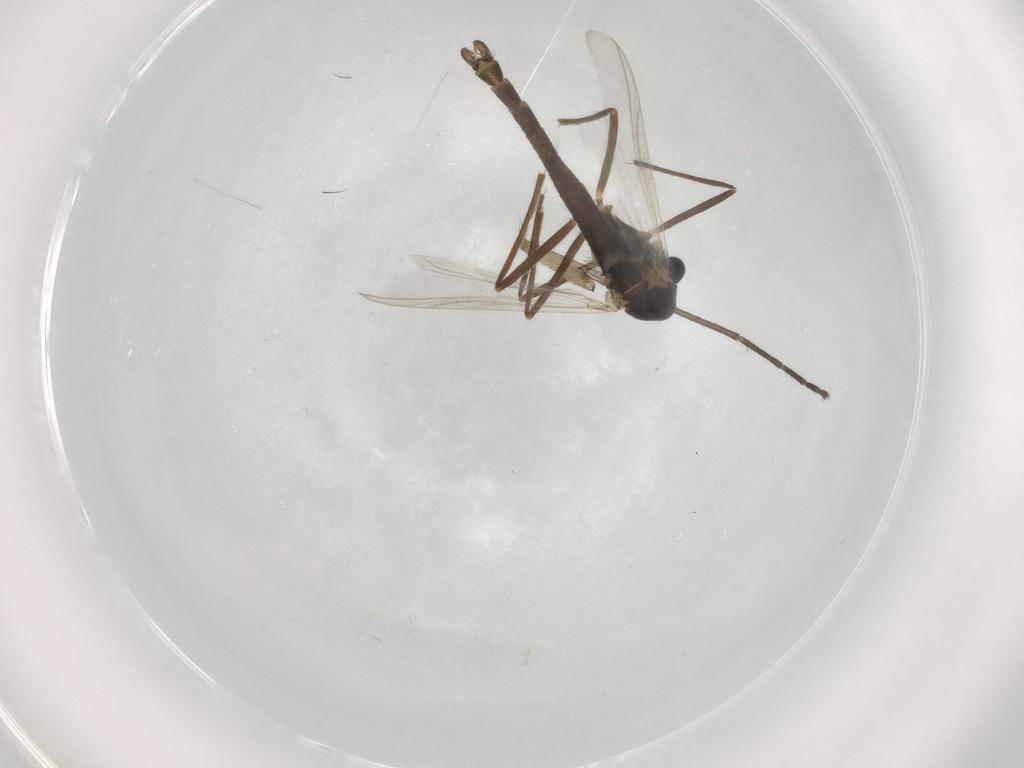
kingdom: Animalia
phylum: Arthropoda
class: Insecta
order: Diptera
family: Chironomidae
